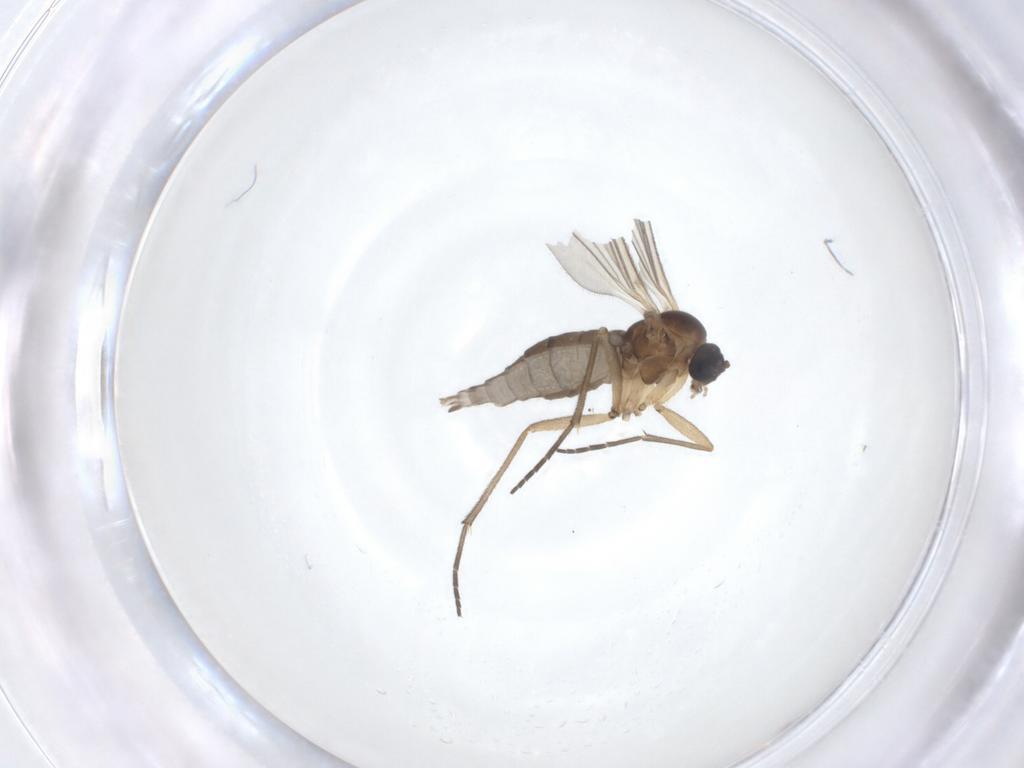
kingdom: Animalia
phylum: Arthropoda
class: Insecta
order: Diptera
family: Sciaridae
